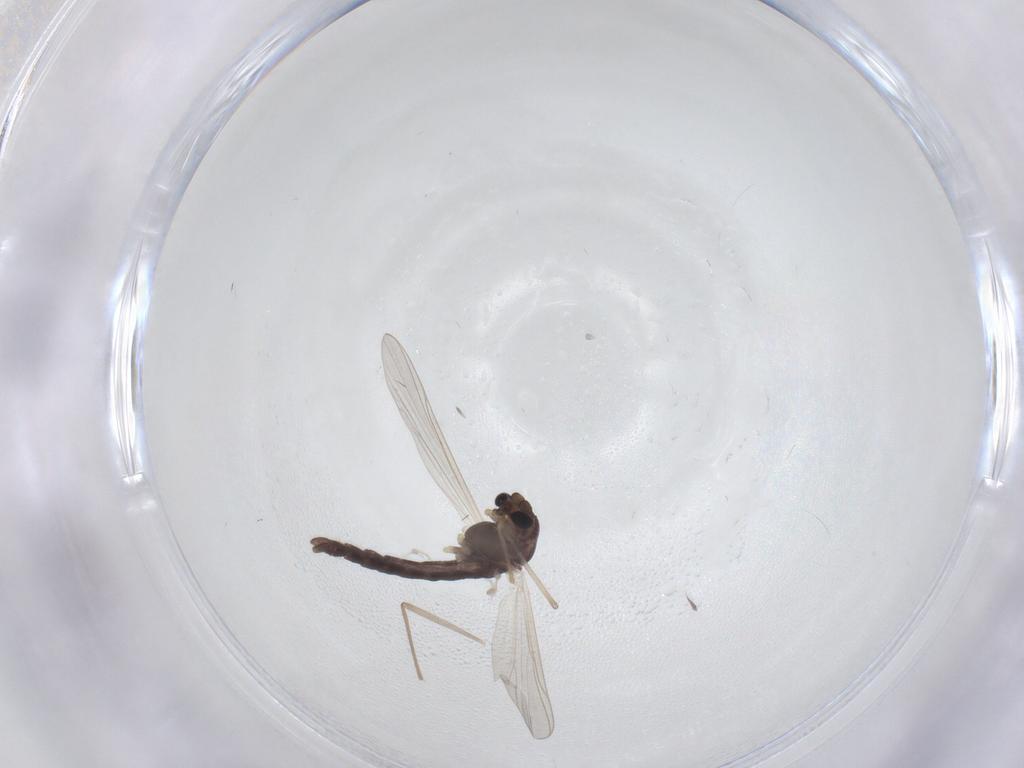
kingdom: Animalia
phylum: Arthropoda
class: Insecta
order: Diptera
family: Chironomidae
